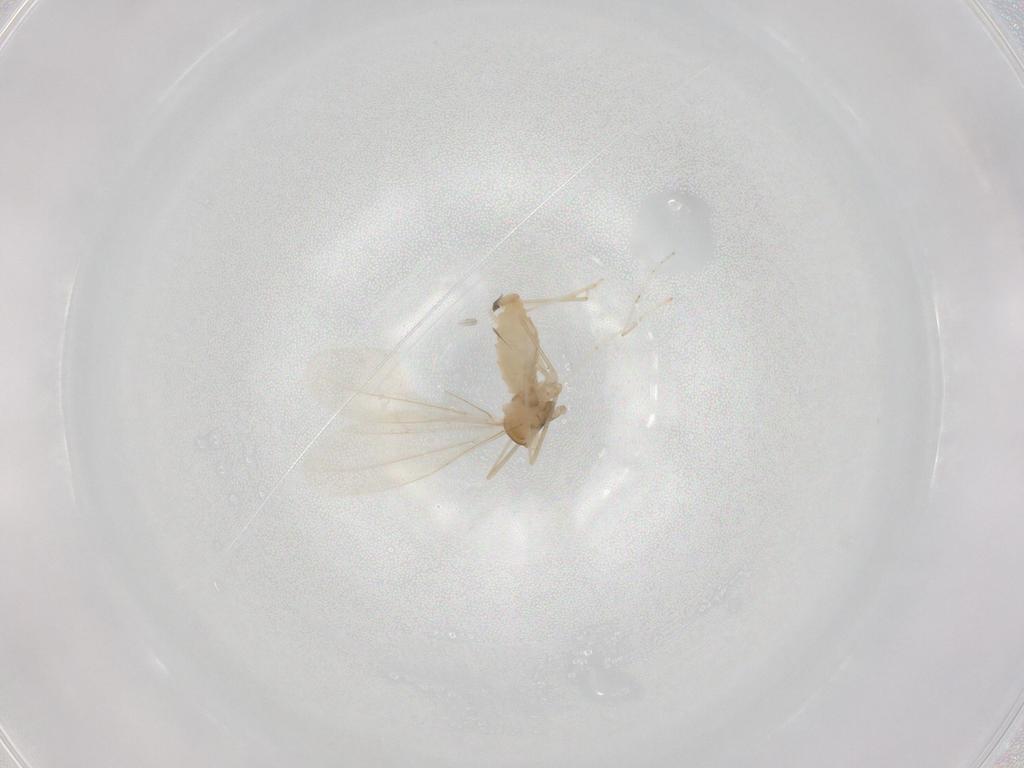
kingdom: Animalia
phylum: Arthropoda
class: Insecta
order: Diptera
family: Cecidomyiidae
